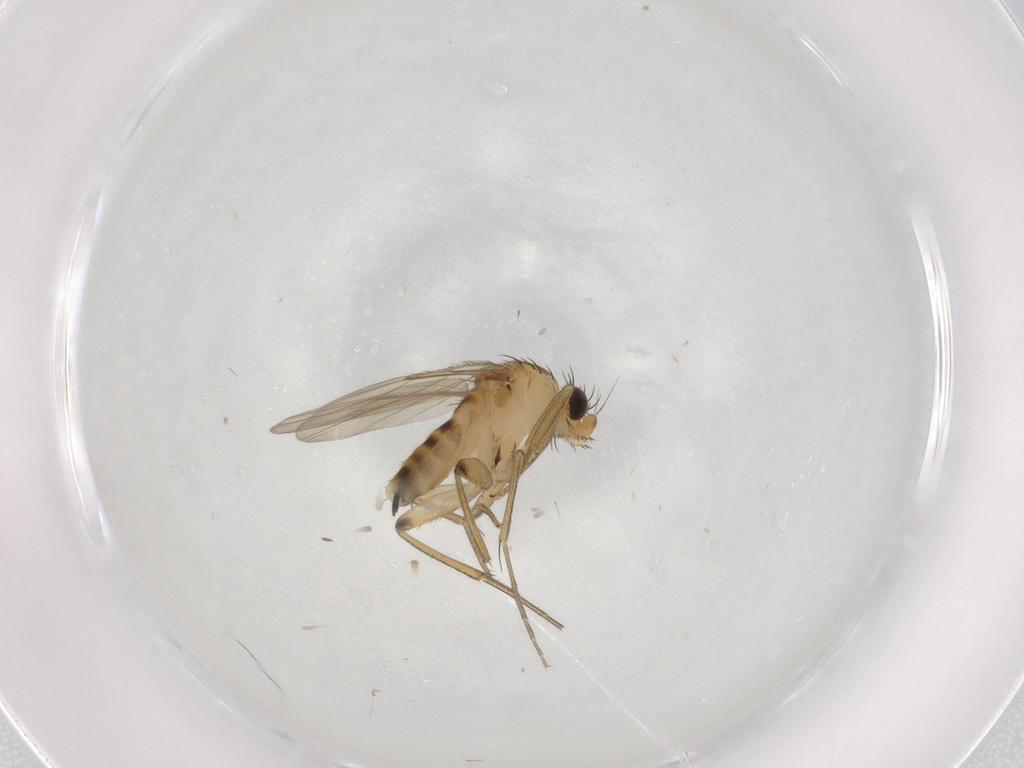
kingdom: Animalia
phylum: Arthropoda
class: Insecta
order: Diptera
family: Phoridae
